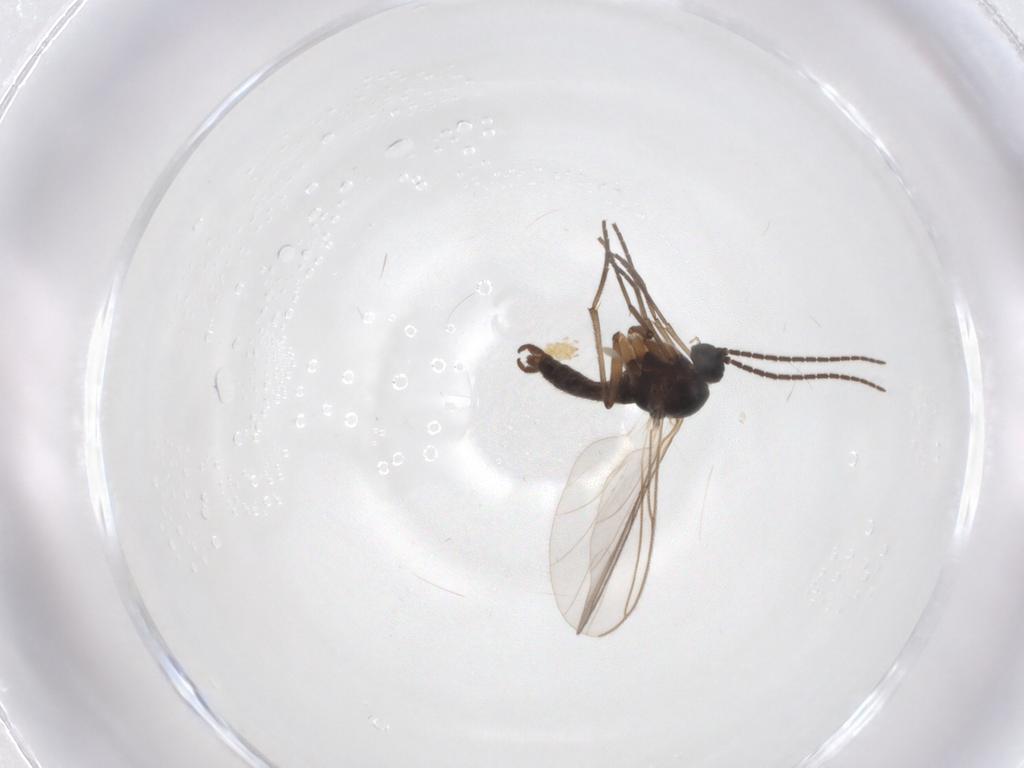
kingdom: Animalia
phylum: Arthropoda
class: Insecta
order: Diptera
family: Sciaridae
